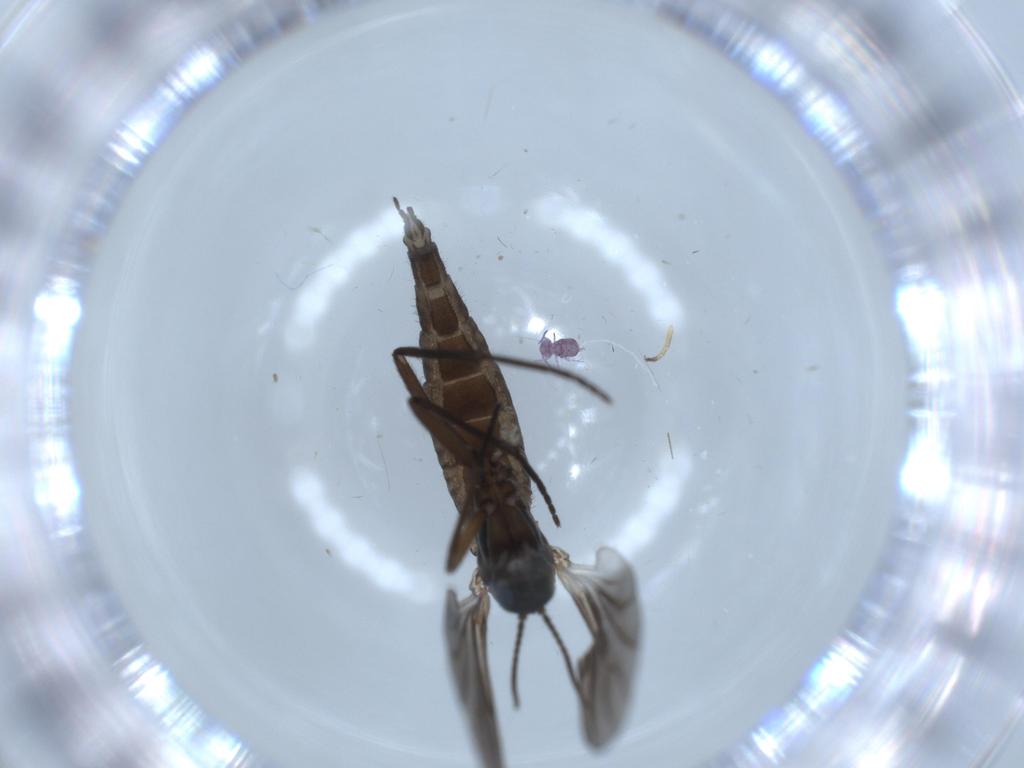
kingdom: Animalia
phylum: Arthropoda
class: Insecta
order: Diptera
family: Sciaridae
